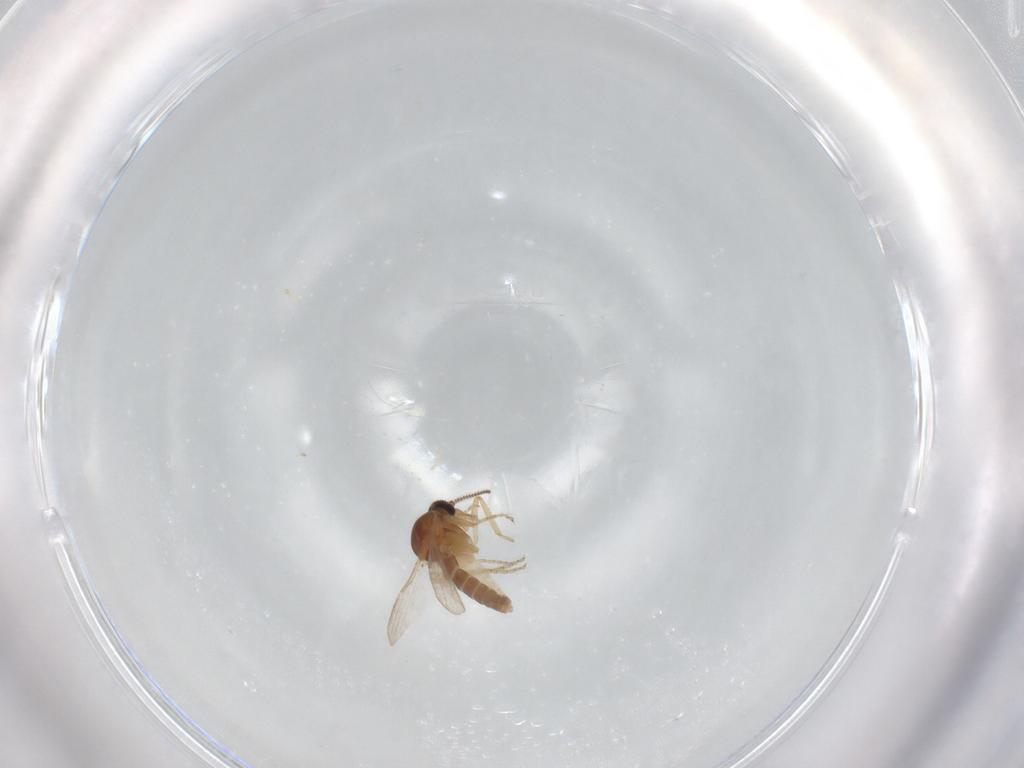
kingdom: Animalia
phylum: Arthropoda
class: Insecta
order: Diptera
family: Ceratopogonidae
